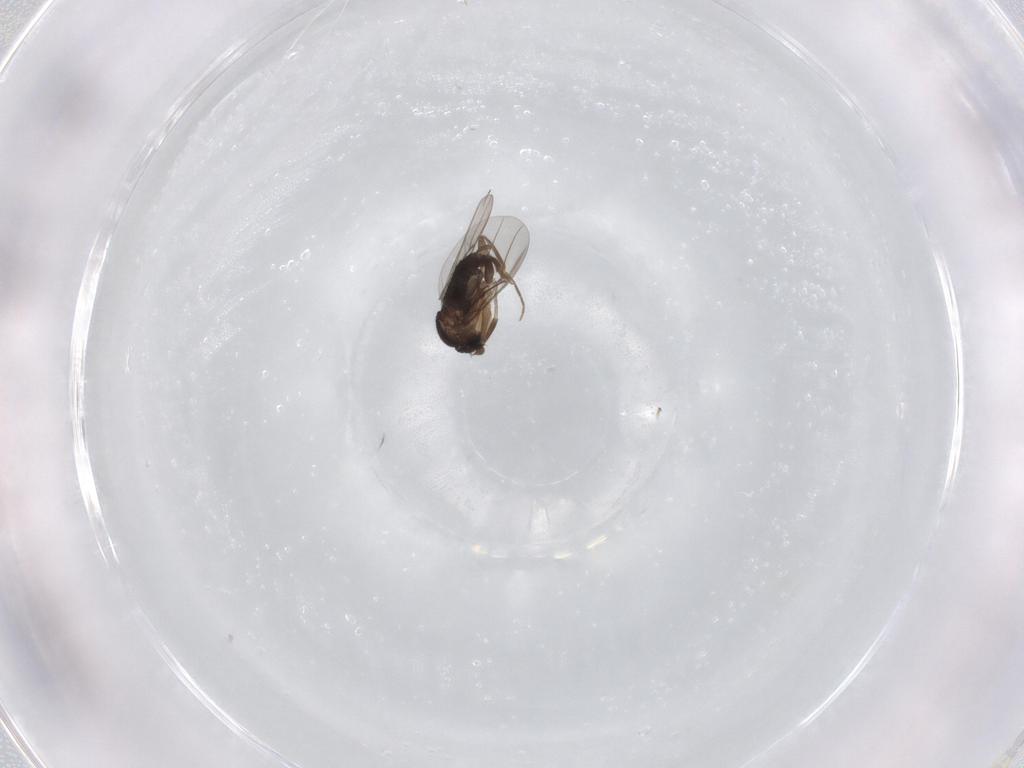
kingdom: Animalia
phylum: Arthropoda
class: Insecta
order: Diptera
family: Phoridae
